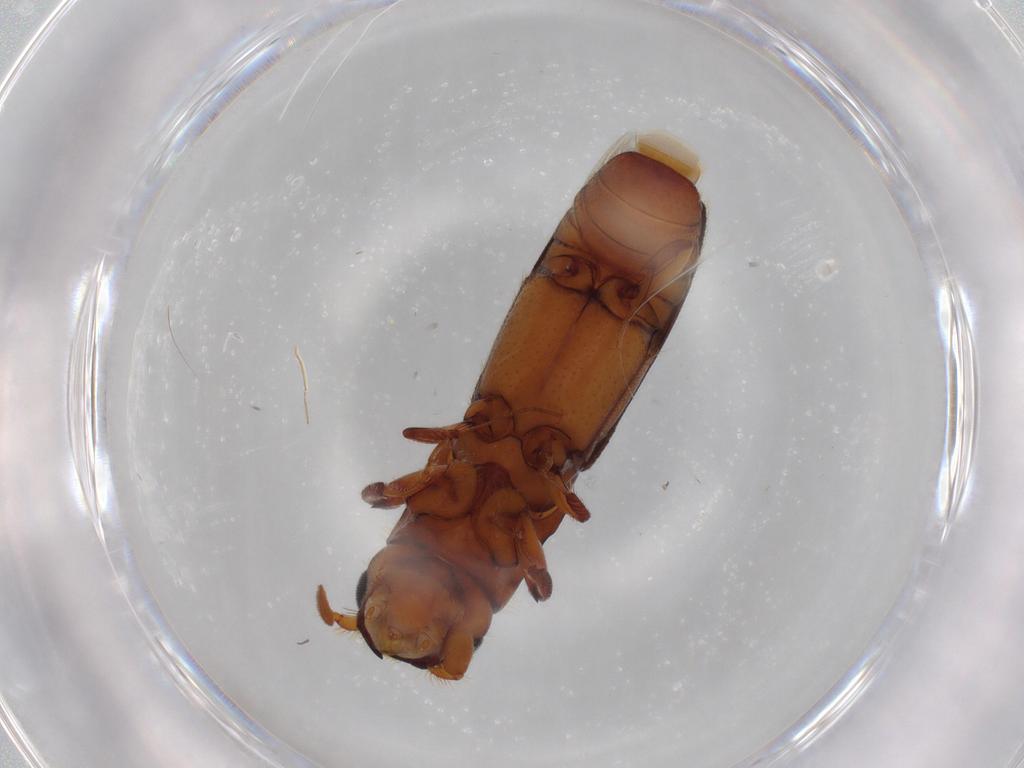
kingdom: Animalia
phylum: Arthropoda
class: Insecta
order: Coleoptera
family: Curculionidae
